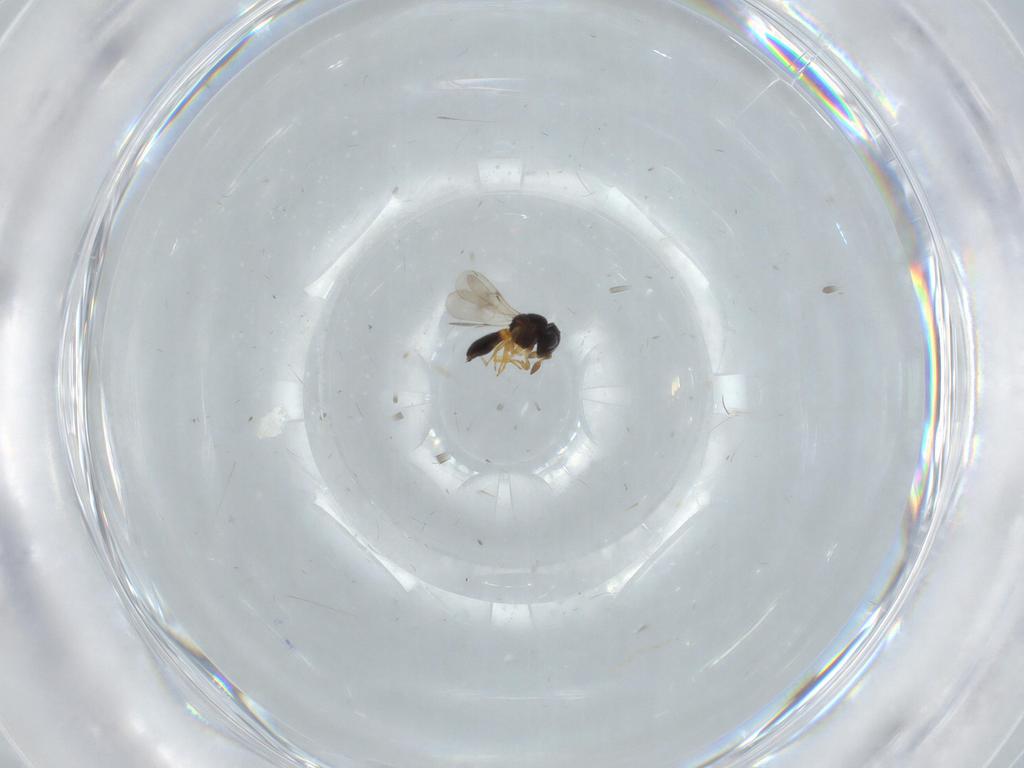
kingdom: Animalia
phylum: Arthropoda
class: Insecta
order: Hymenoptera
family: Scelionidae
